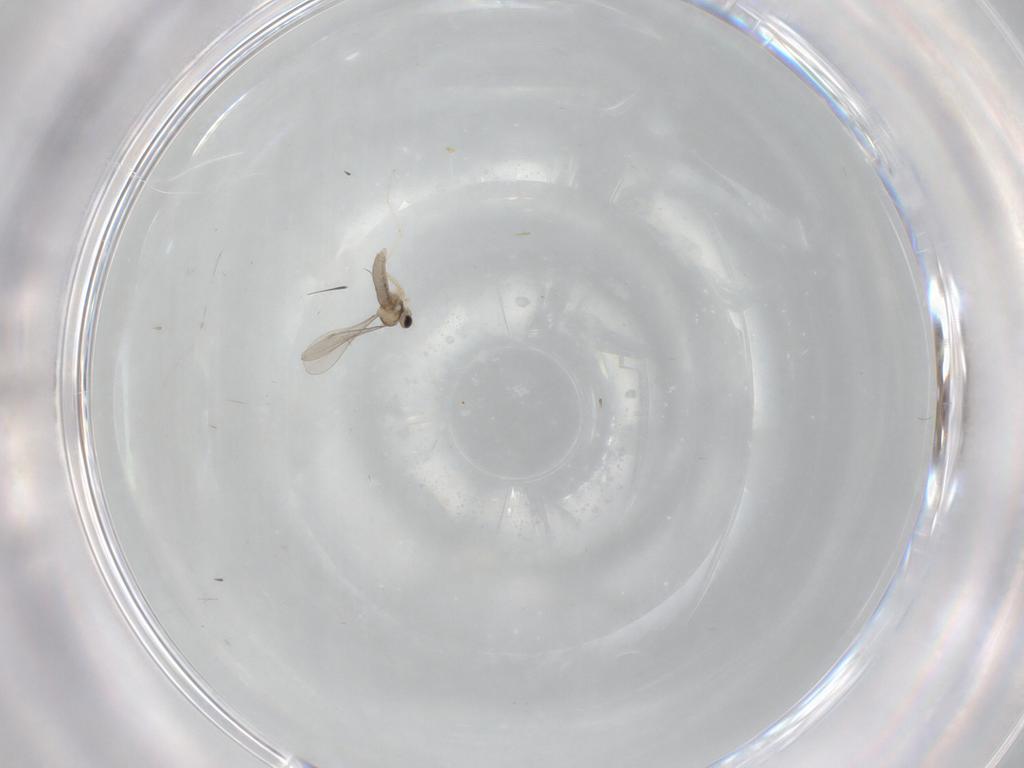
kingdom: Animalia
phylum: Arthropoda
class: Insecta
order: Diptera
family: Cecidomyiidae
